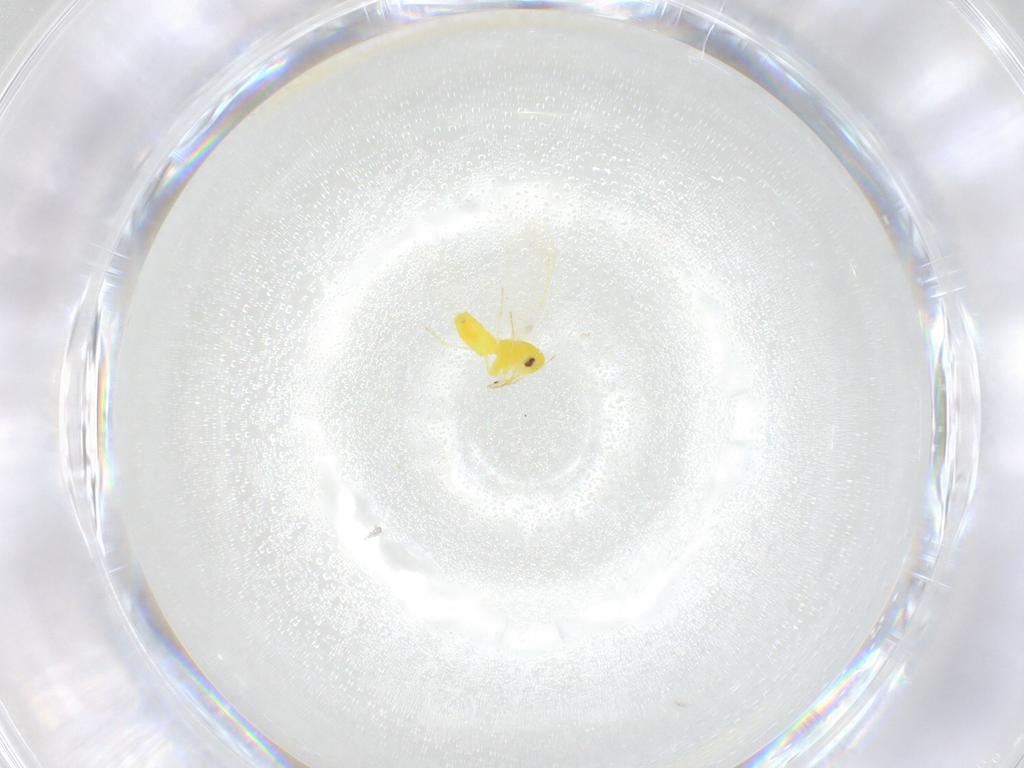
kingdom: Animalia
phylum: Arthropoda
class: Insecta
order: Hemiptera
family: Aleyrodidae
